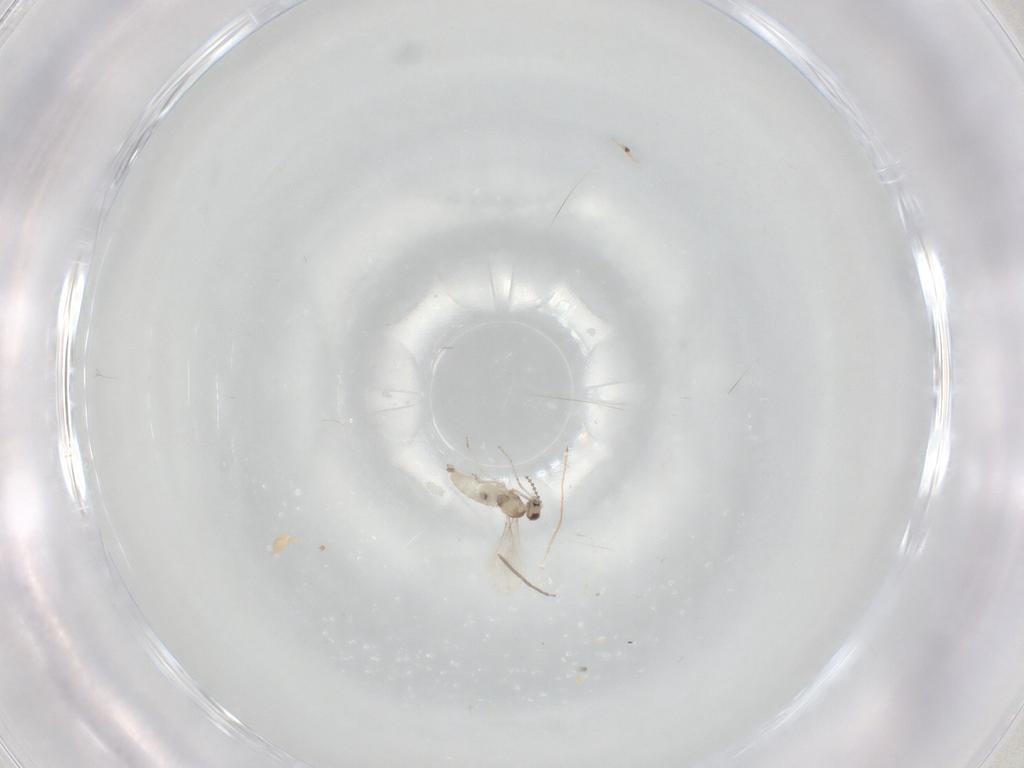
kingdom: Animalia
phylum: Arthropoda
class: Insecta
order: Diptera
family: Cecidomyiidae
